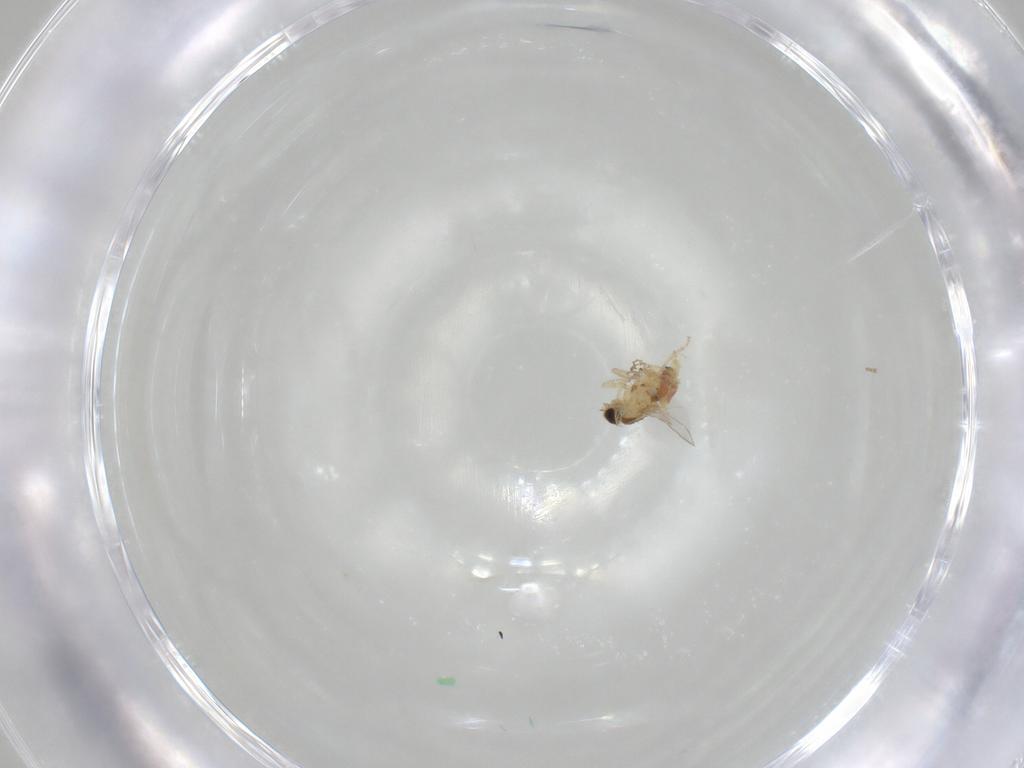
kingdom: Animalia
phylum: Arthropoda
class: Insecta
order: Diptera
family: Agromyzidae
